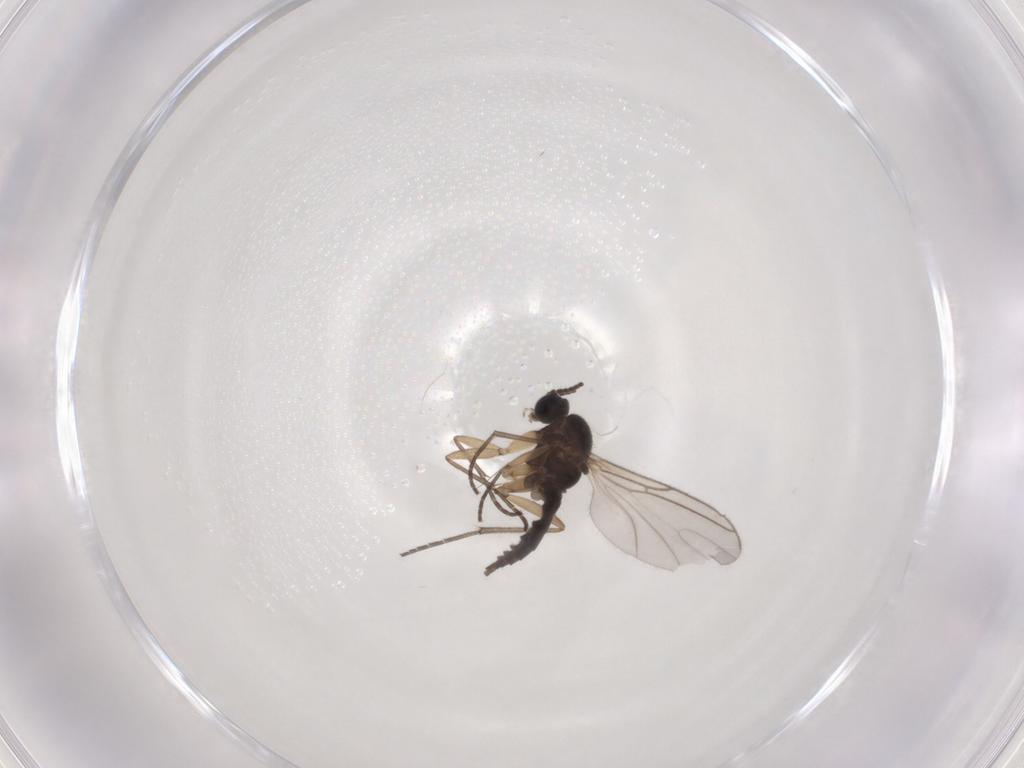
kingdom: Animalia
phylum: Arthropoda
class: Insecta
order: Diptera
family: Sciaridae
